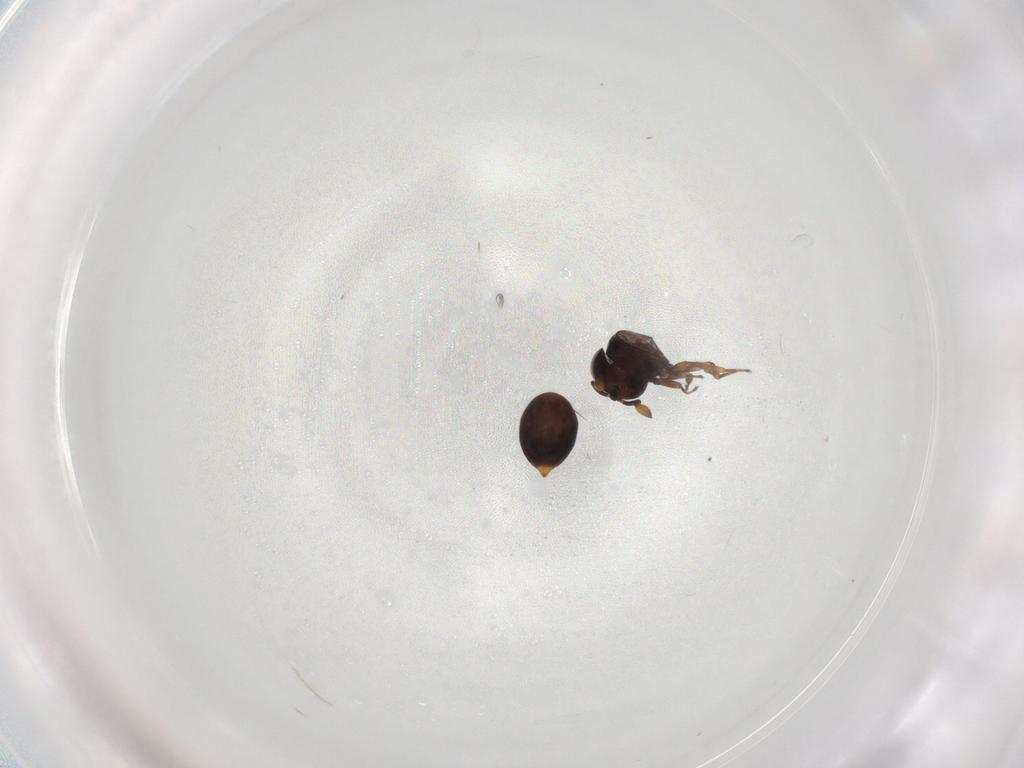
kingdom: Animalia
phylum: Arthropoda
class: Insecta
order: Hymenoptera
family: Scelionidae
